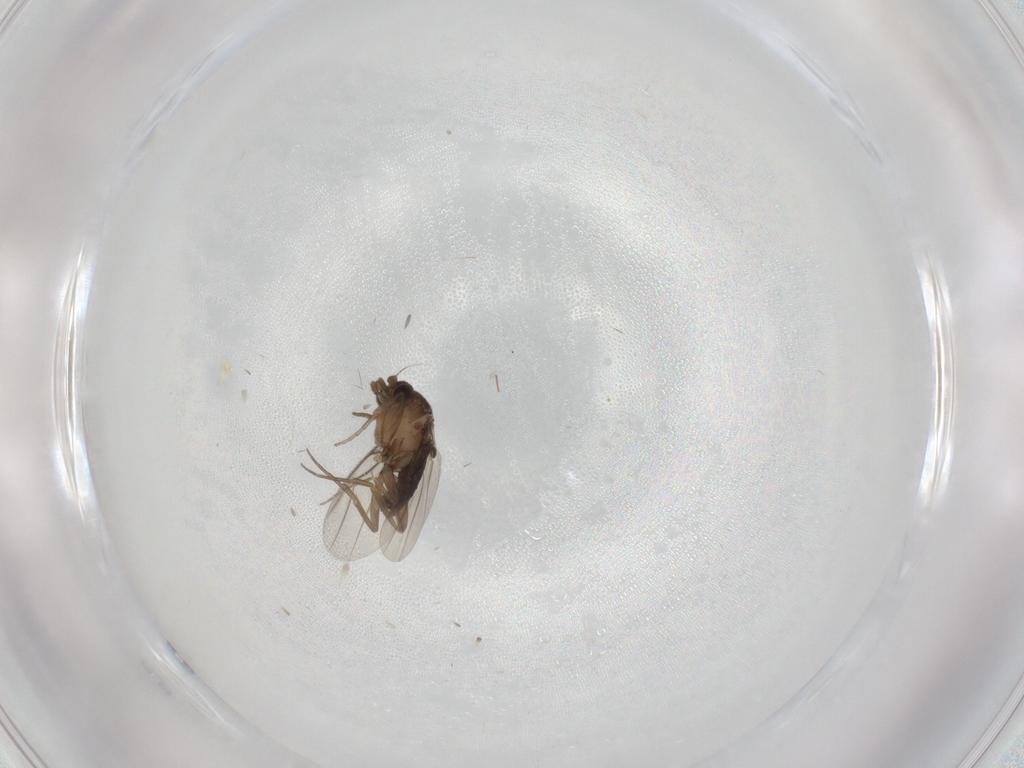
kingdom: Animalia
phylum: Arthropoda
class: Insecta
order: Diptera
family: Phoridae
